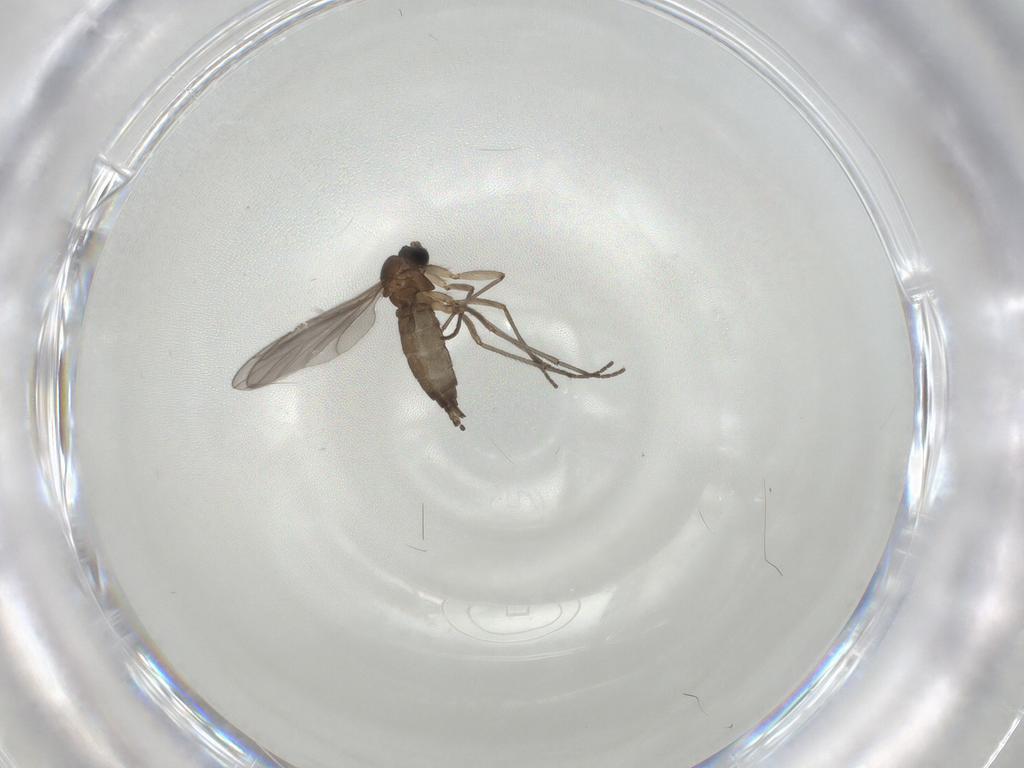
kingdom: Animalia
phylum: Arthropoda
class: Insecta
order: Diptera
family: Sciaridae
